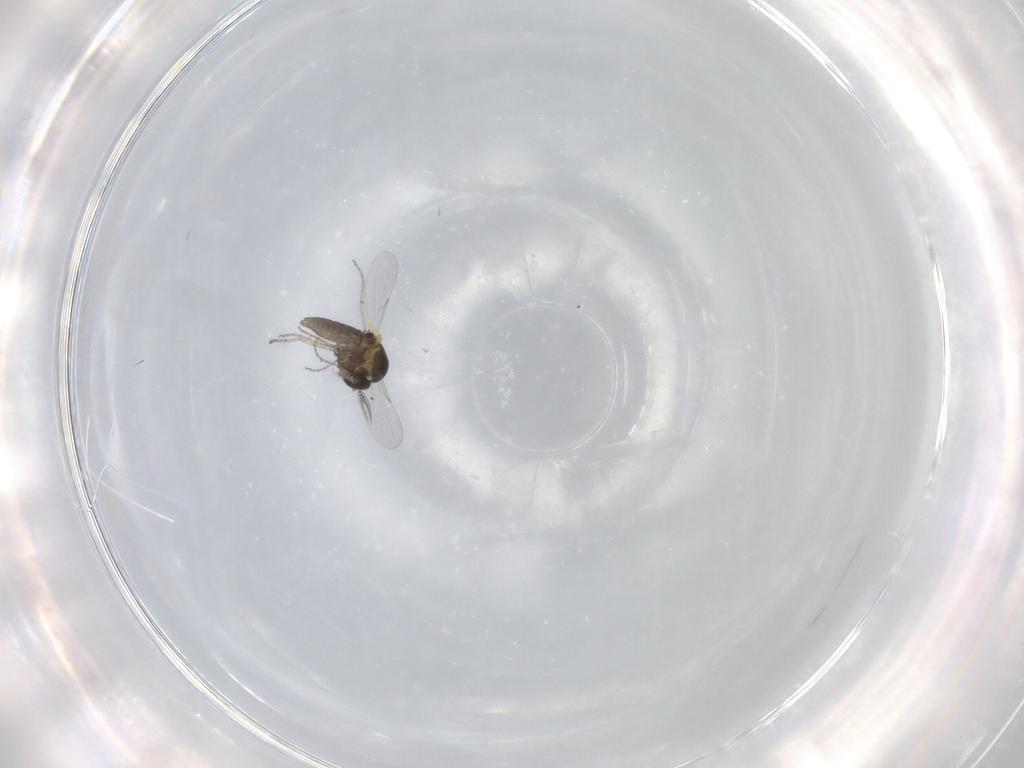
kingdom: Animalia
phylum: Arthropoda
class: Insecta
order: Diptera
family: Ceratopogonidae
